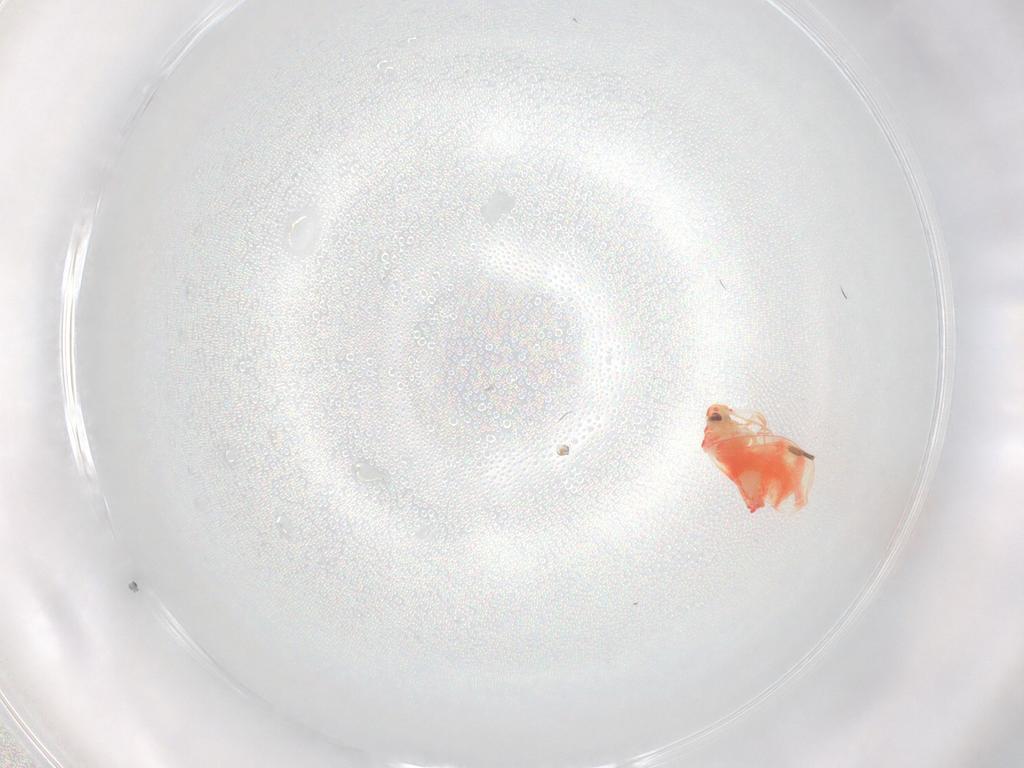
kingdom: Animalia
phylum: Arthropoda
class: Insecta
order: Hemiptera
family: Aleyrodidae
